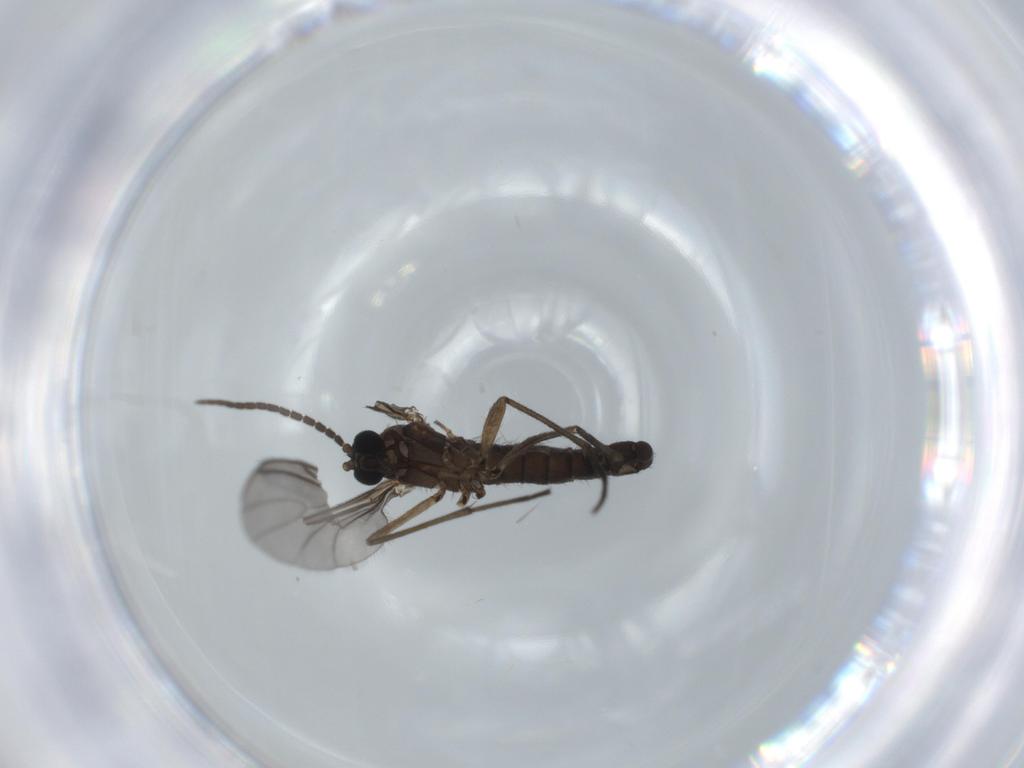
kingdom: Animalia
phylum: Arthropoda
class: Insecta
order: Diptera
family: Sciaridae
